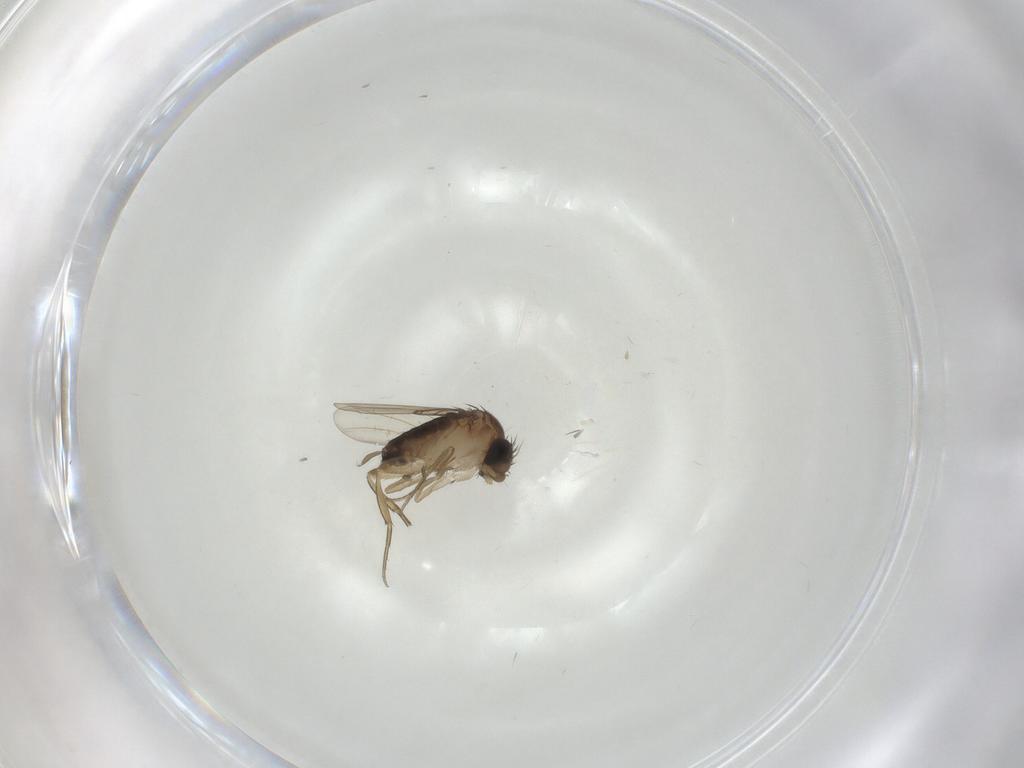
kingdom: Animalia
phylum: Arthropoda
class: Insecta
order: Diptera
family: Phoridae
